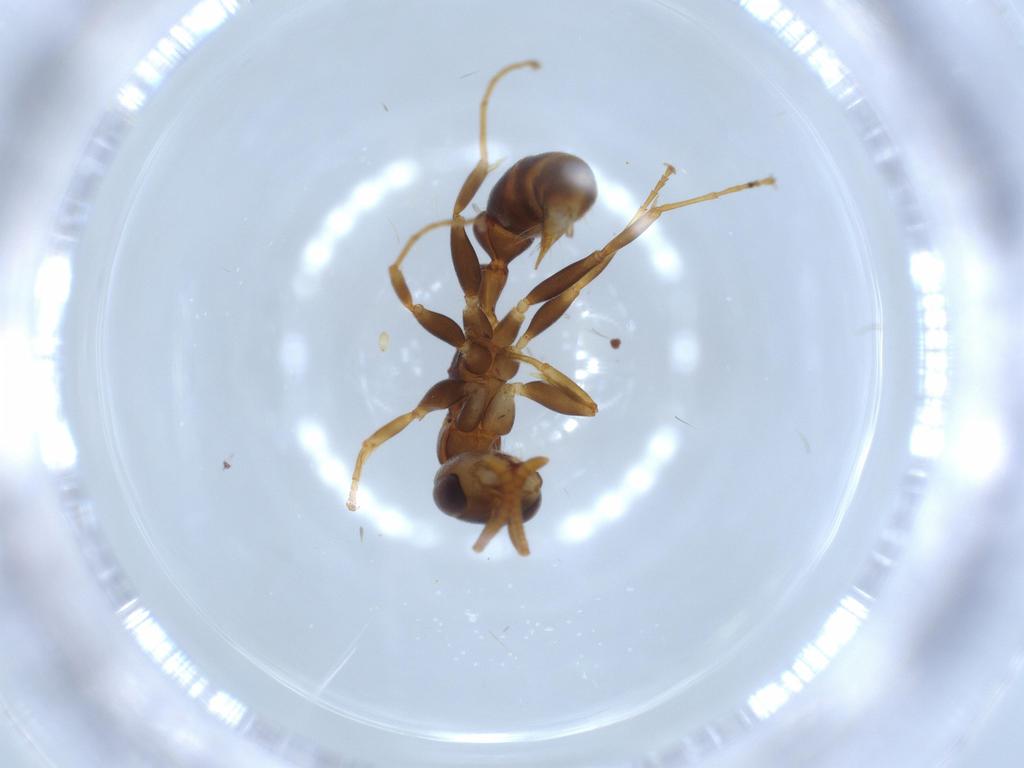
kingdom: Animalia
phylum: Arthropoda
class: Insecta
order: Hymenoptera
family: Formicidae
